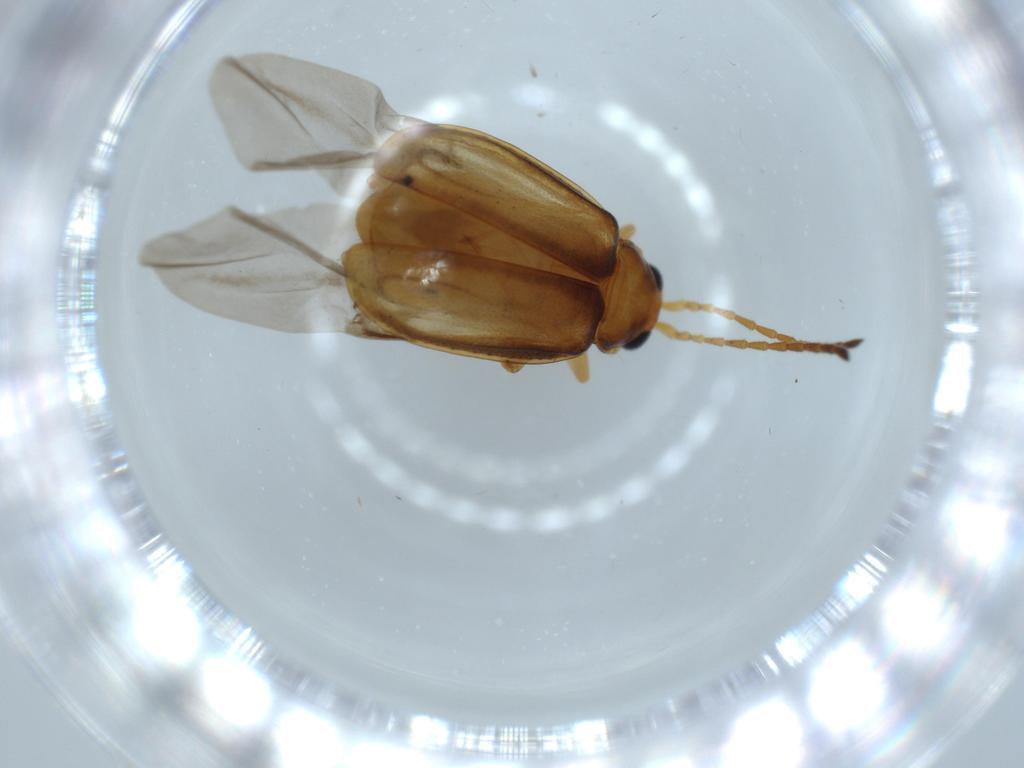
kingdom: Animalia
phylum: Arthropoda
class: Insecta
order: Coleoptera
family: Chrysomelidae
